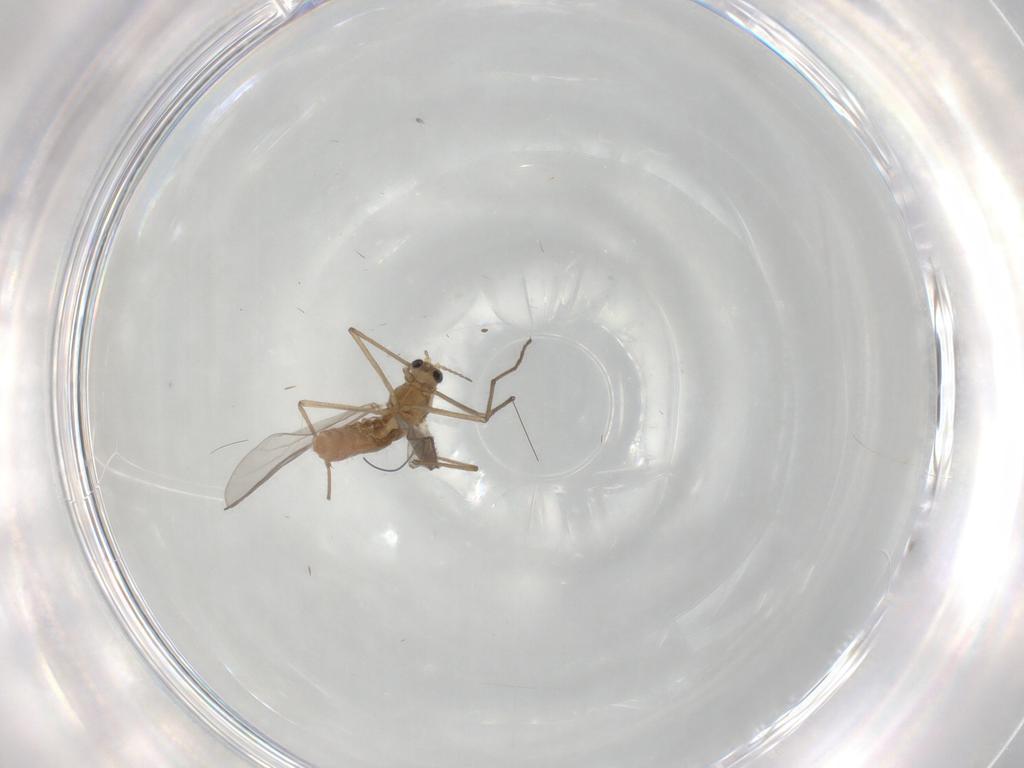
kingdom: Animalia
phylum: Arthropoda
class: Insecta
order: Diptera
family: Chironomidae
